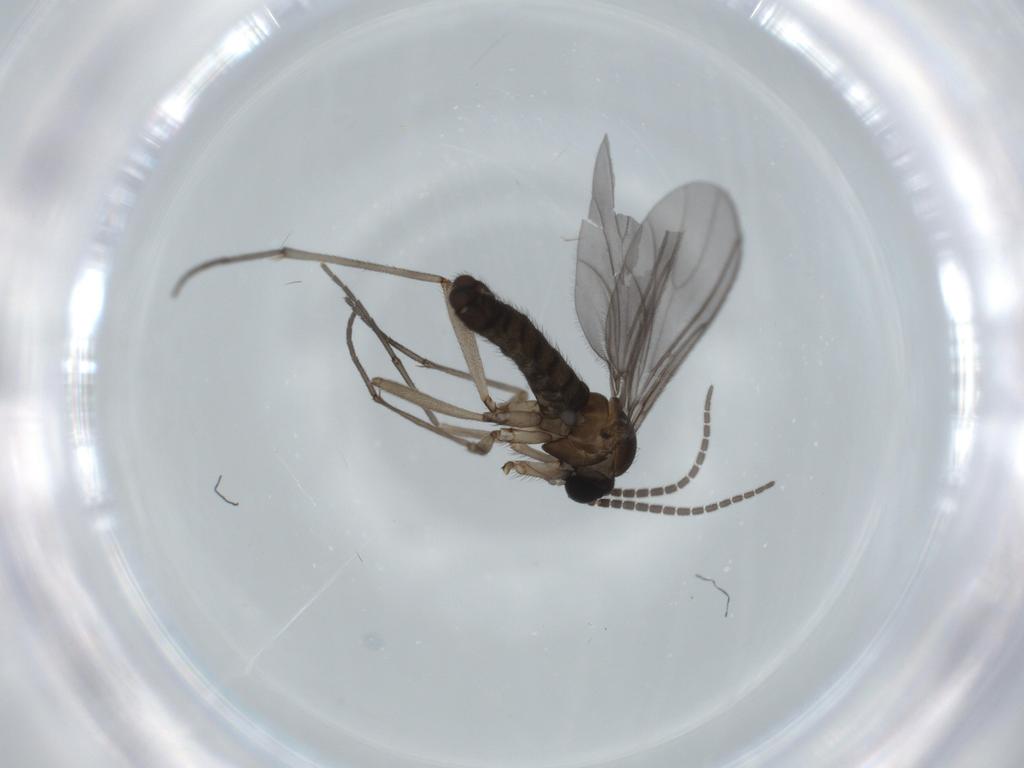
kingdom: Animalia
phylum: Arthropoda
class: Insecta
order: Diptera
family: Sciaridae
